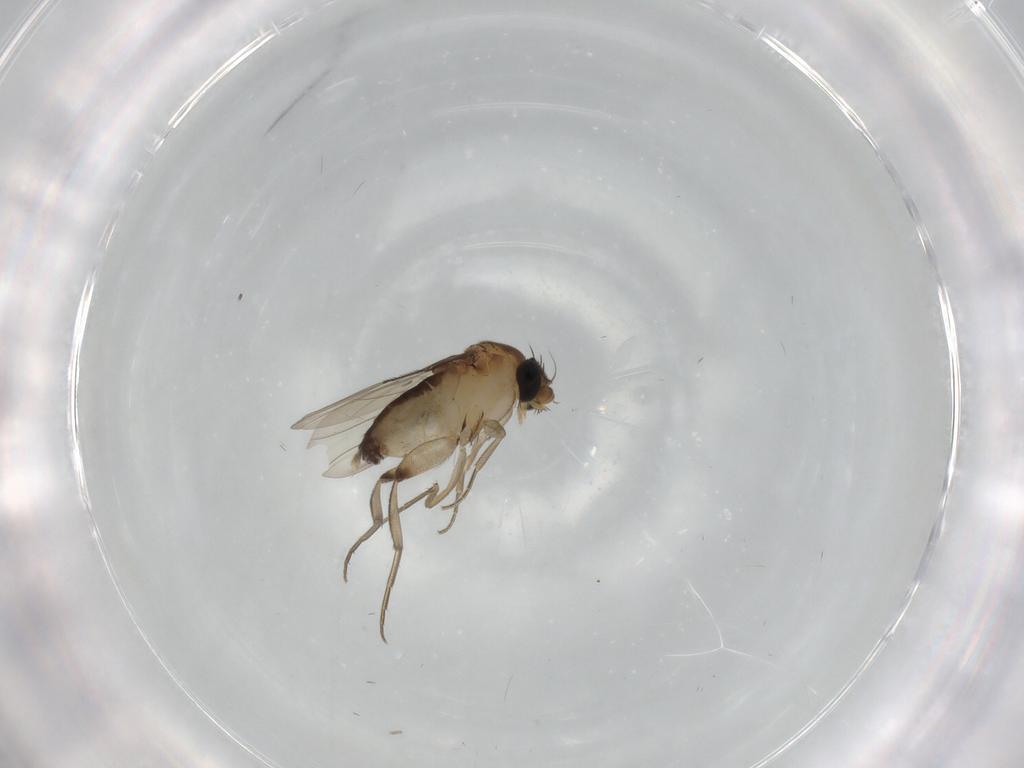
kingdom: Animalia
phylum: Arthropoda
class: Insecta
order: Diptera
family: Phoridae
